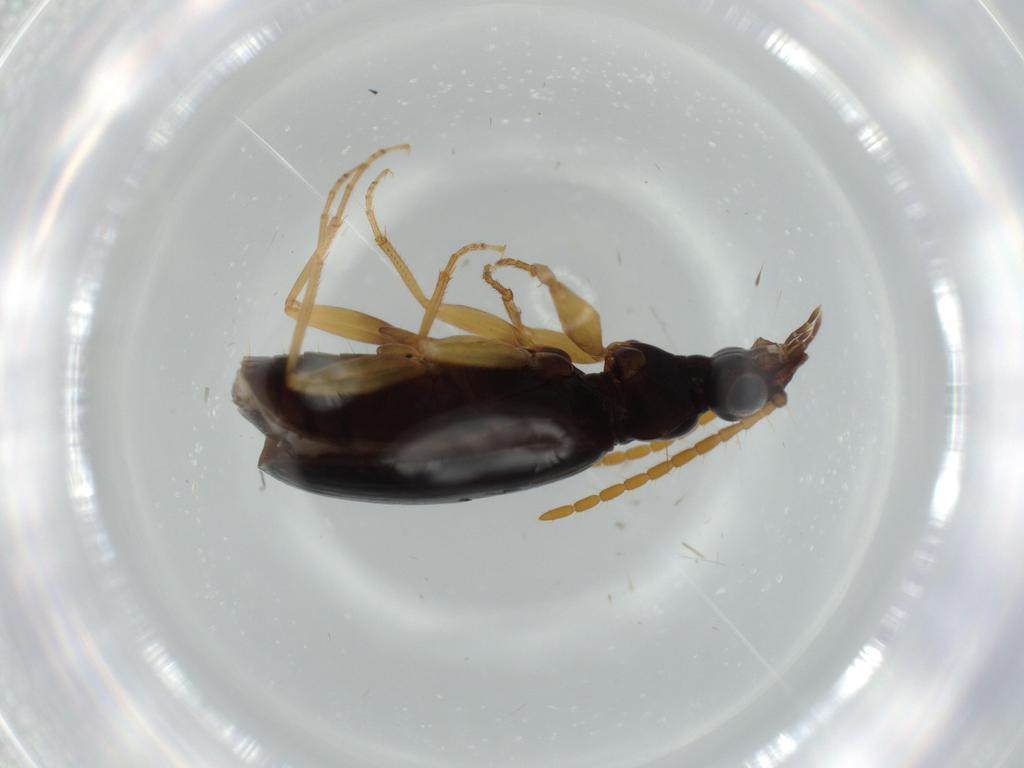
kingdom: Animalia
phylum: Arthropoda
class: Insecta
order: Coleoptera
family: Carabidae
